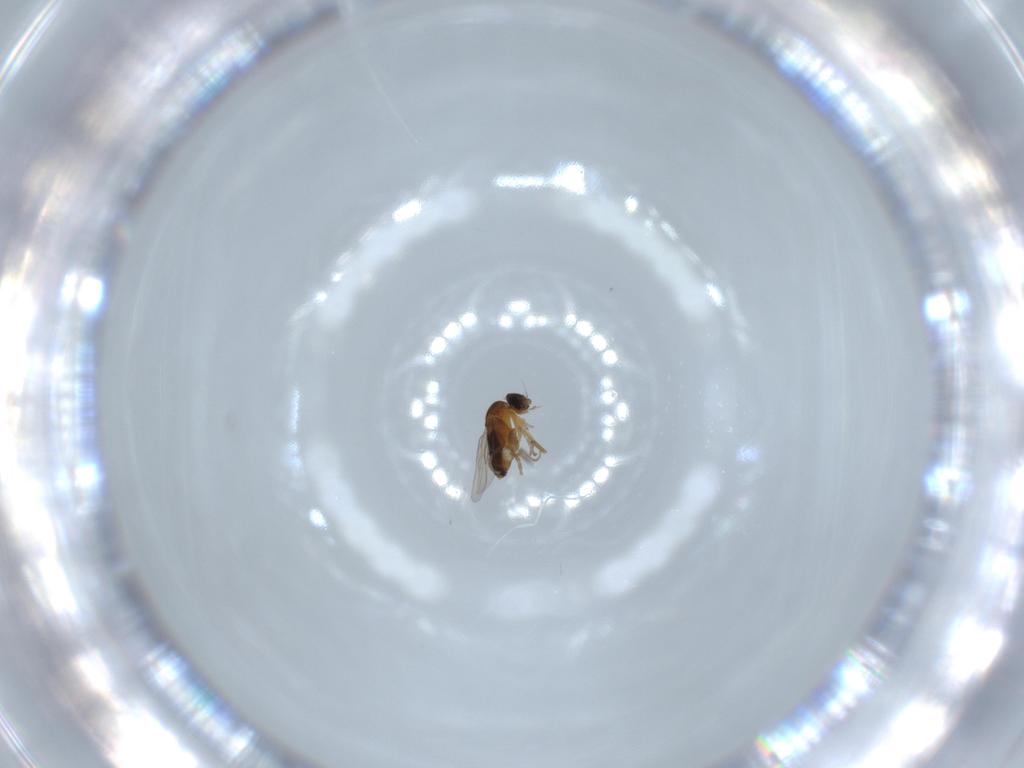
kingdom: Animalia
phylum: Arthropoda
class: Insecta
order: Diptera
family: Phoridae
